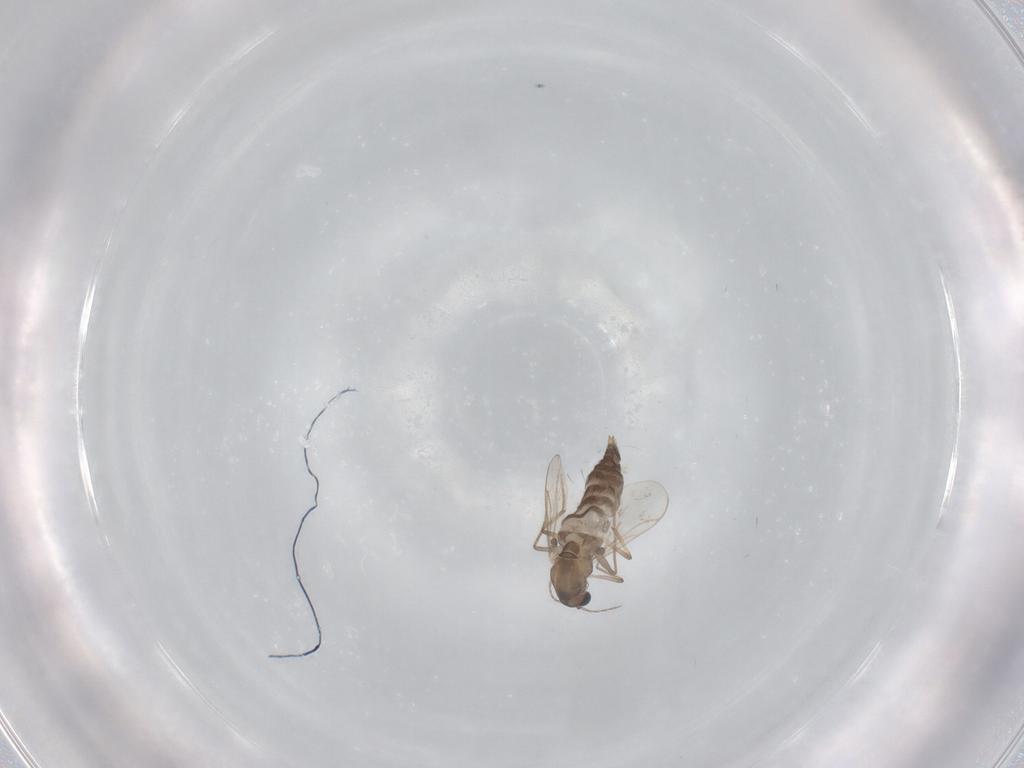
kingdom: Animalia
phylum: Arthropoda
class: Insecta
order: Diptera
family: Chironomidae
